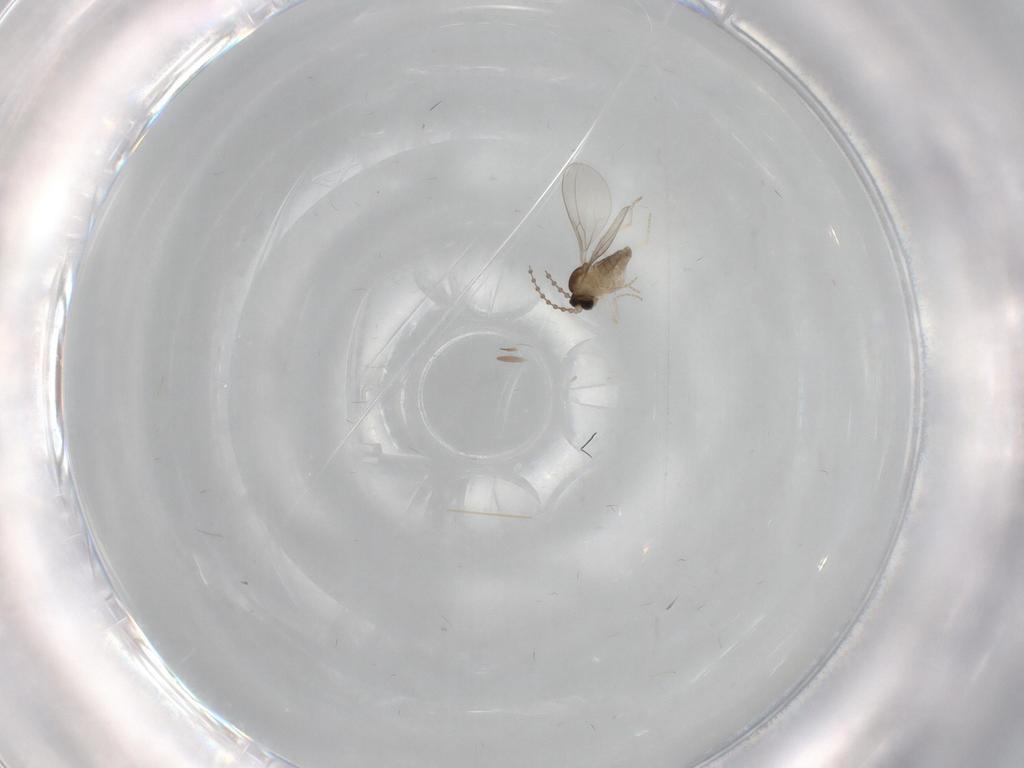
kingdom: Animalia
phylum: Arthropoda
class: Insecta
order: Diptera
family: Cecidomyiidae
